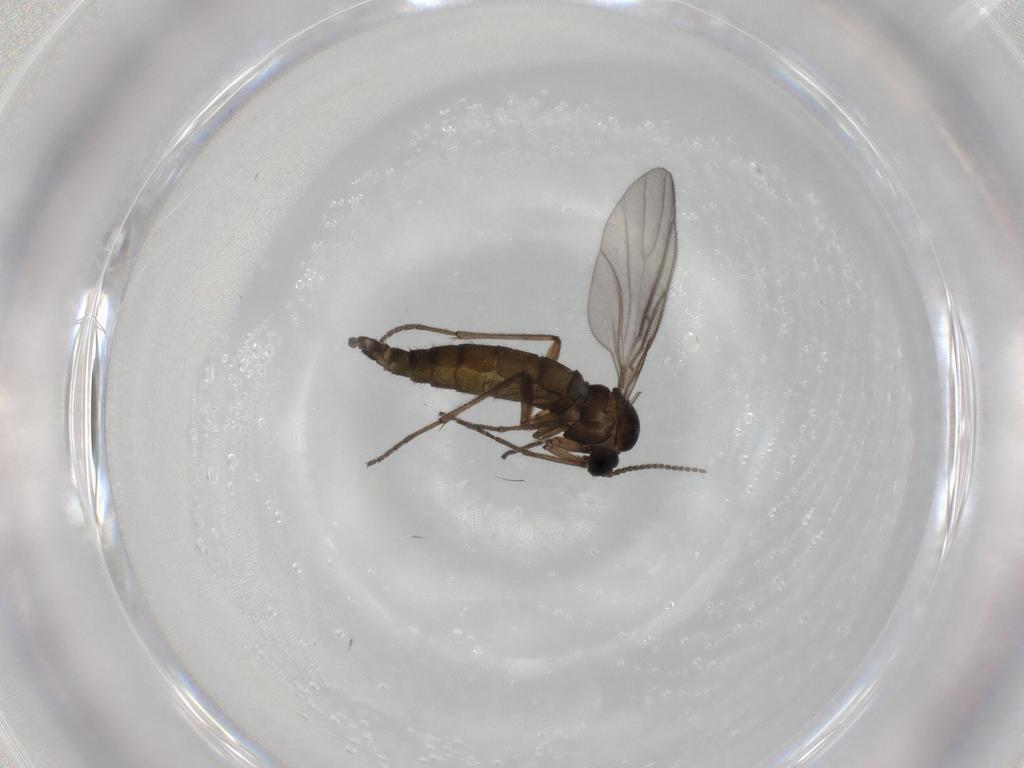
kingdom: Animalia
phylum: Arthropoda
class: Insecta
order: Diptera
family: Sciaridae
